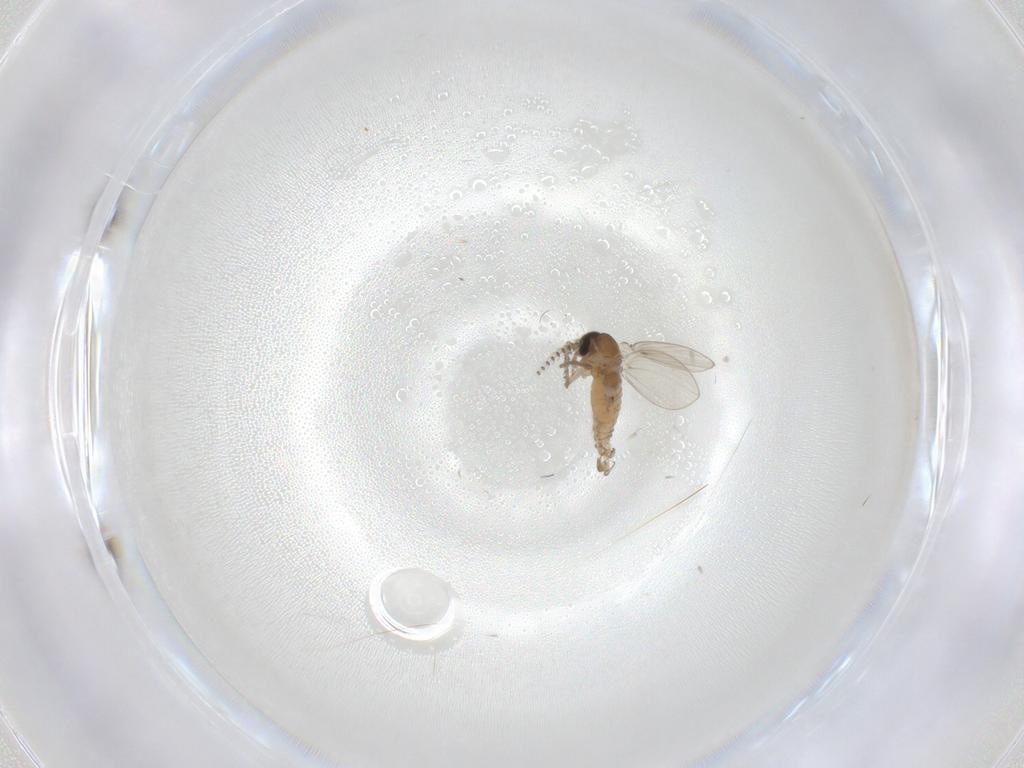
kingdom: Animalia
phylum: Arthropoda
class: Insecta
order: Diptera
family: Psychodidae
